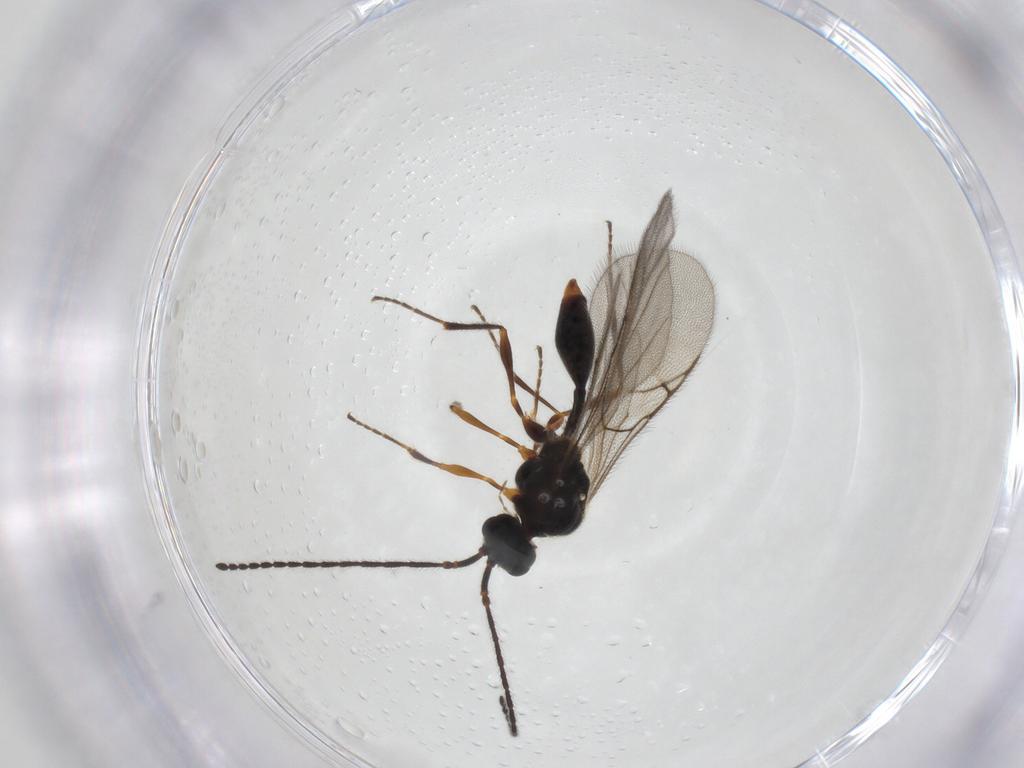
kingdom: Animalia
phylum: Arthropoda
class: Insecta
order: Hymenoptera
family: Diapriidae
